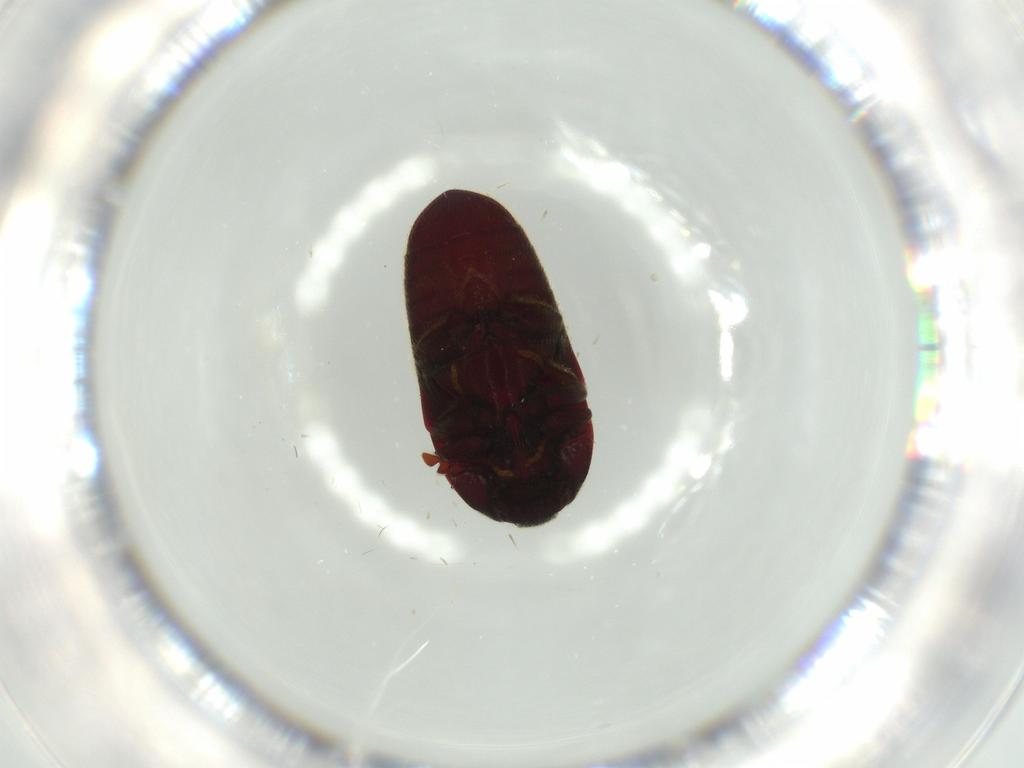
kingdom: Animalia
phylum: Arthropoda
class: Insecta
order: Coleoptera
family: Throscidae
